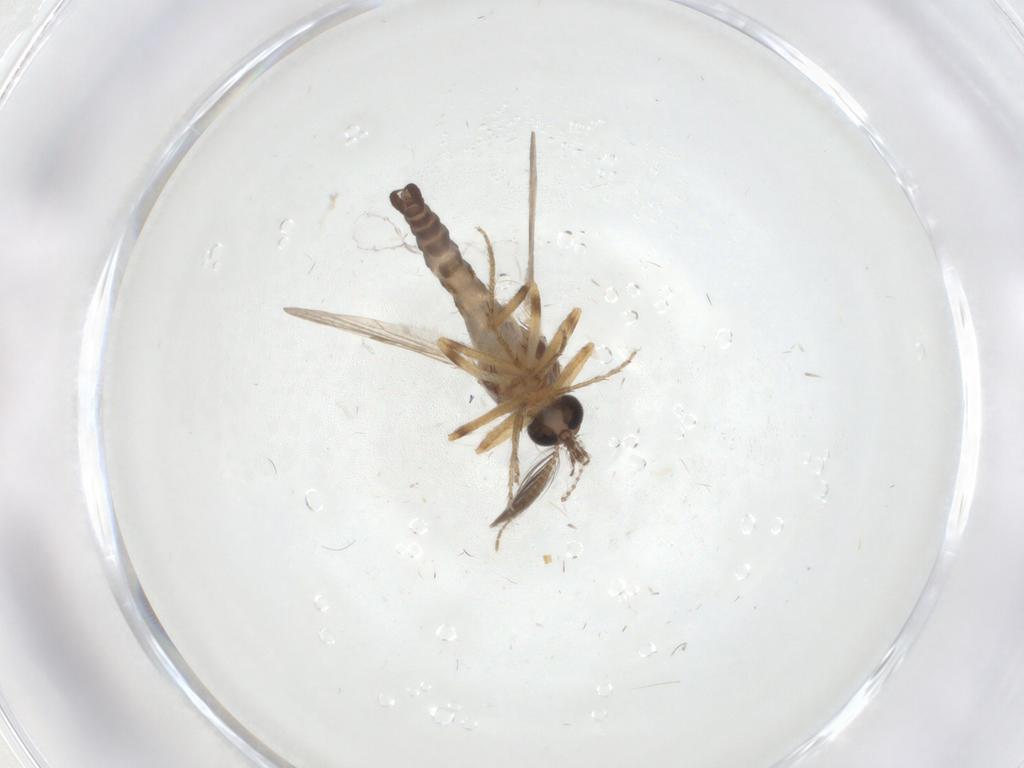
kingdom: Animalia
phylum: Arthropoda
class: Insecta
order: Diptera
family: Ceratopogonidae
